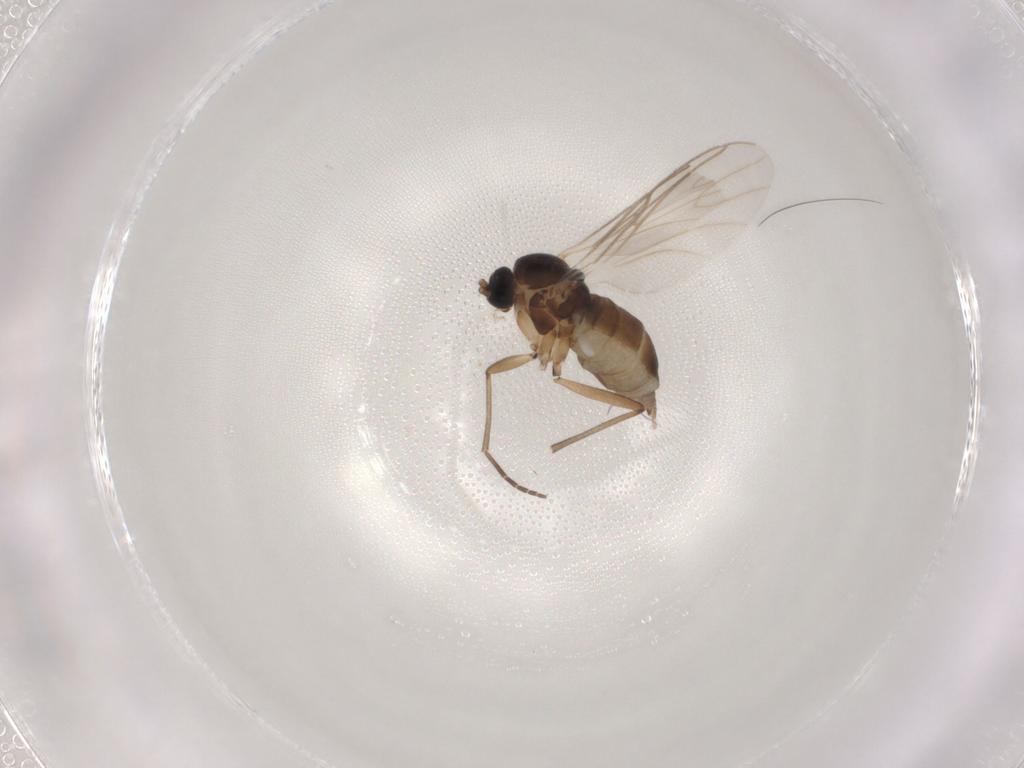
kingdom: Animalia
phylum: Arthropoda
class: Insecta
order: Diptera
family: Pipunculidae
